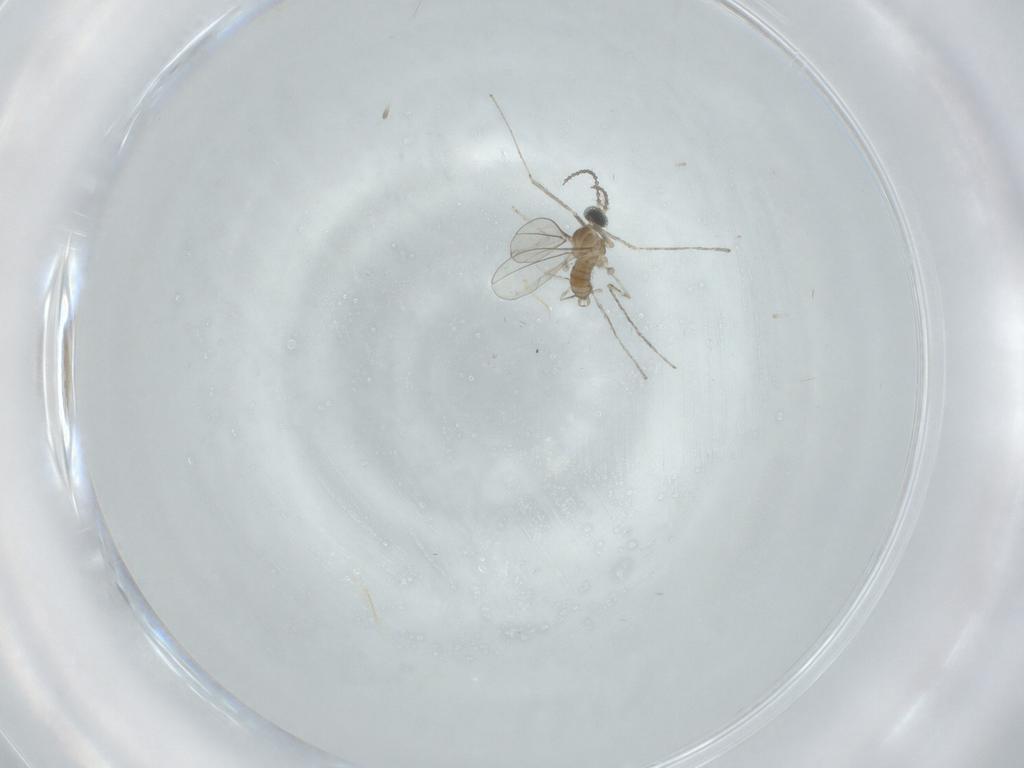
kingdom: Animalia
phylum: Arthropoda
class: Insecta
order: Diptera
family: Cecidomyiidae
